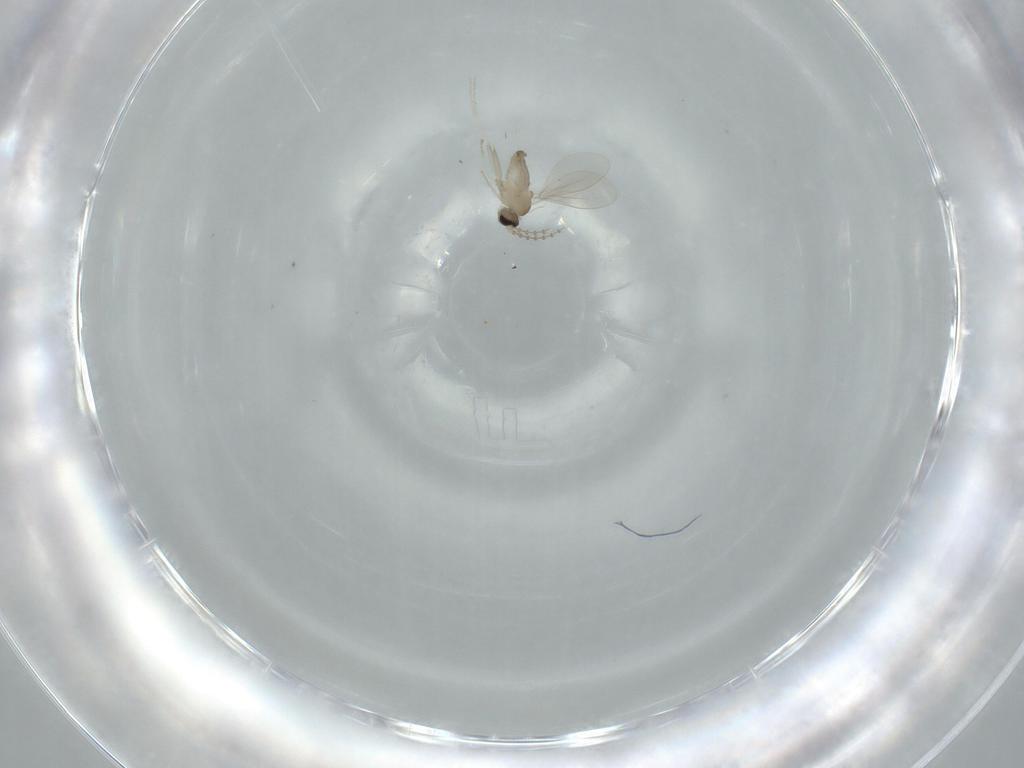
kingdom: Animalia
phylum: Arthropoda
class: Insecta
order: Diptera
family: Cecidomyiidae
